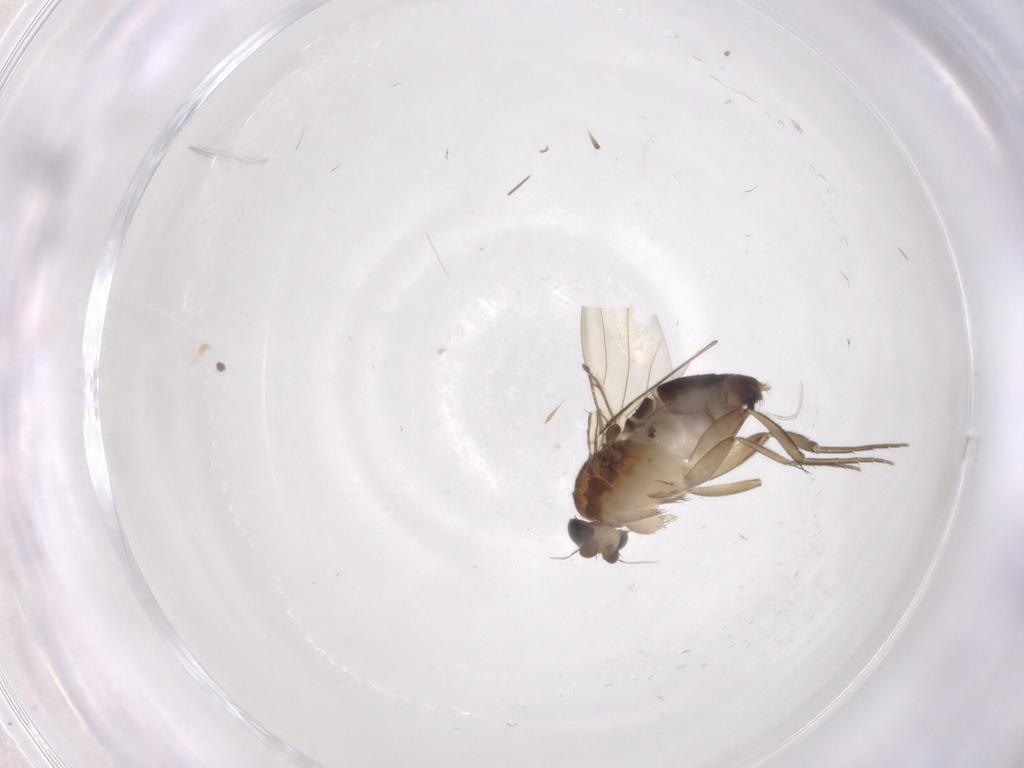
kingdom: Animalia
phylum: Arthropoda
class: Insecta
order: Diptera
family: Phoridae
